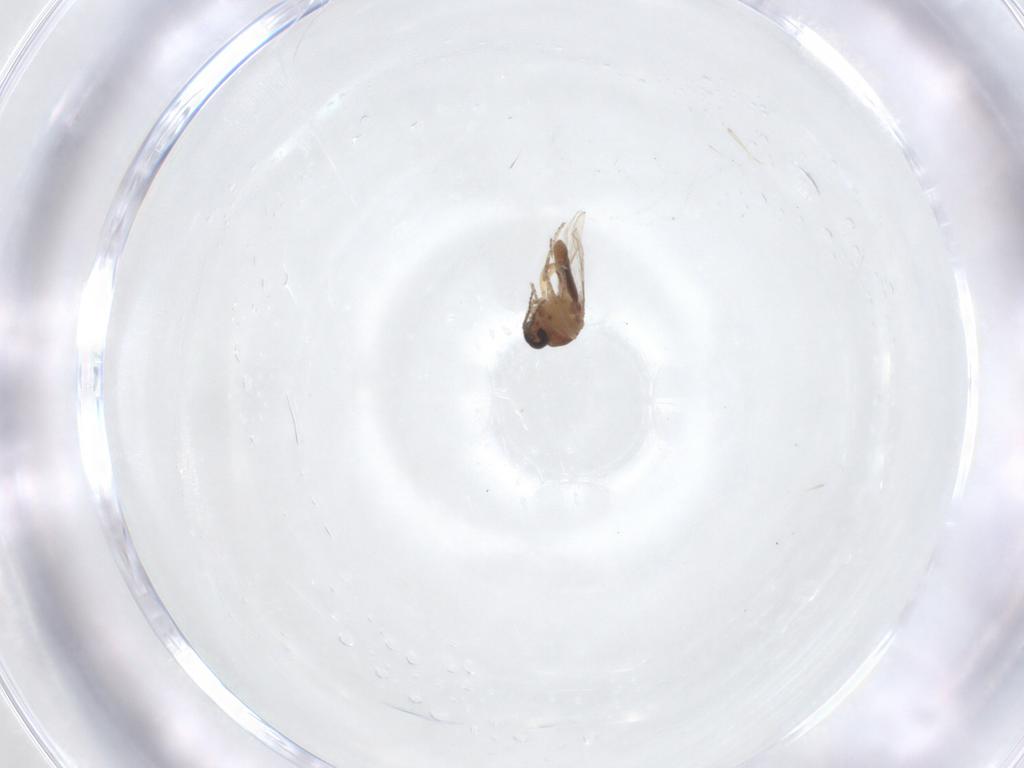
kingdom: Animalia
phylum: Arthropoda
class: Insecta
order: Diptera
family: Ceratopogonidae
